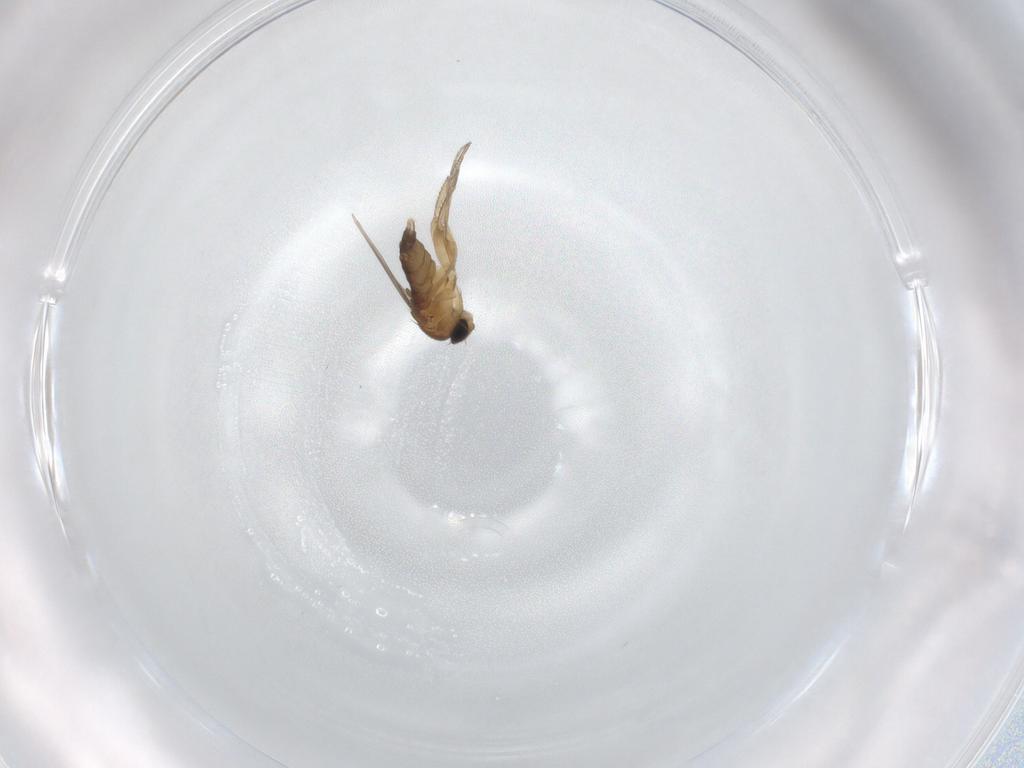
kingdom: Animalia
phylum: Arthropoda
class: Insecta
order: Diptera
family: Phoridae
